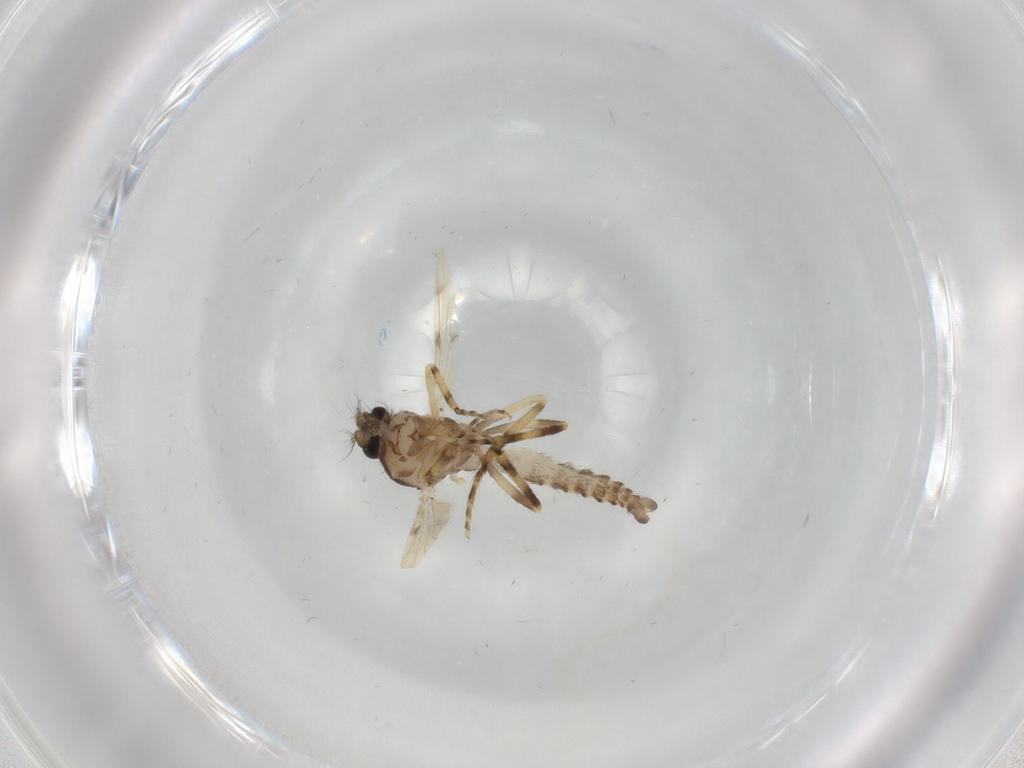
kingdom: Animalia
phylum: Arthropoda
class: Insecta
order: Diptera
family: Ceratopogonidae
